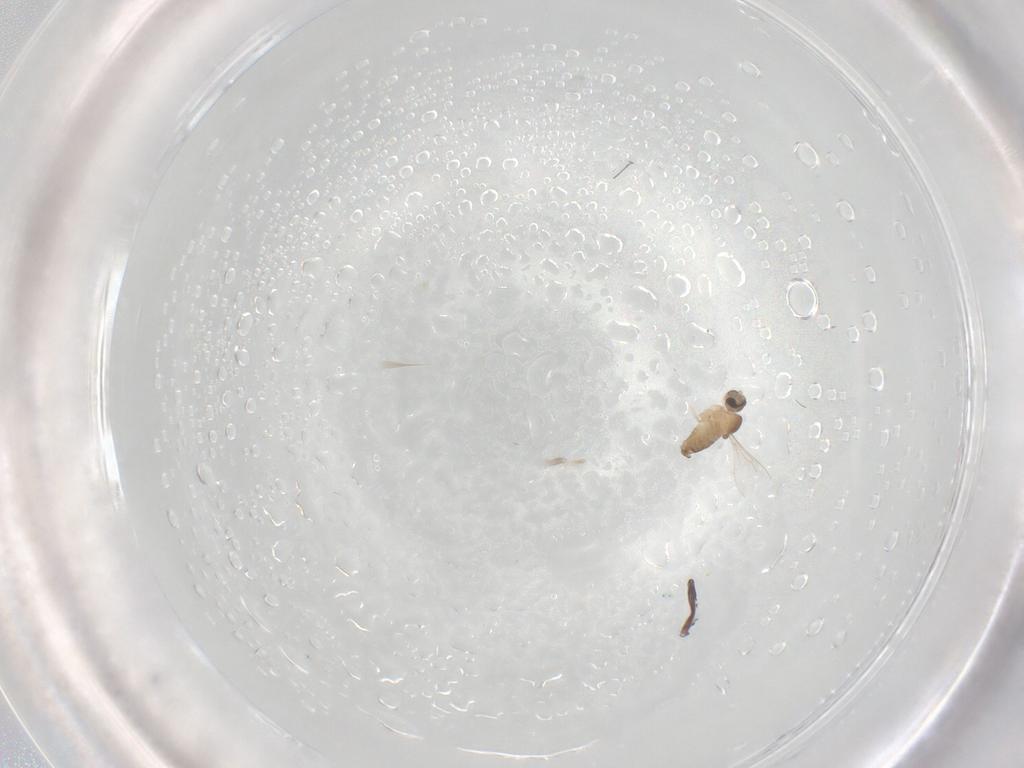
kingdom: Animalia
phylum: Arthropoda
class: Insecta
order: Diptera
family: Cecidomyiidae
